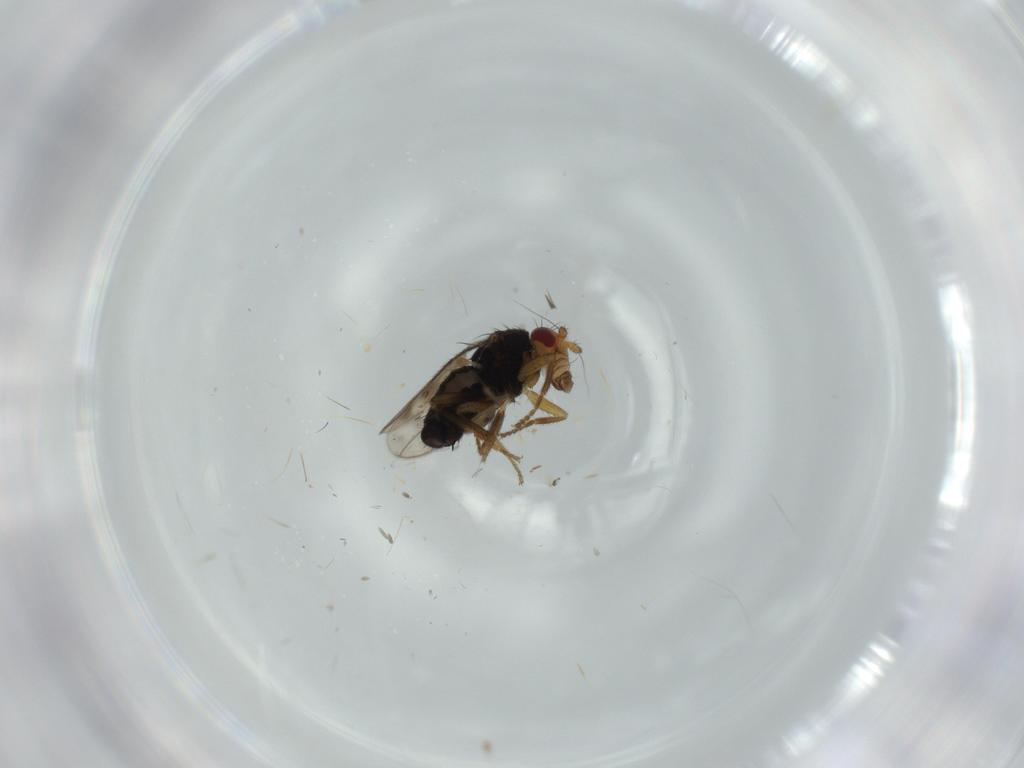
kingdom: Animalia
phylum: Arthropoda
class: Insecta
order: Diptera
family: Sphaeroceridae
